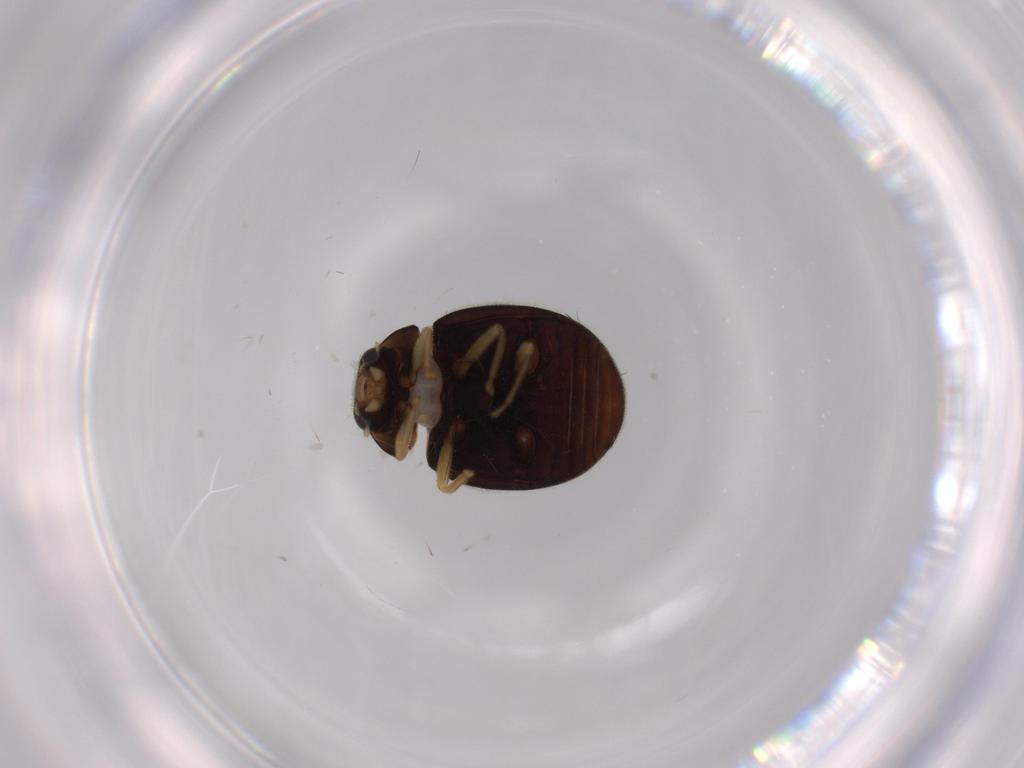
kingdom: Animalia
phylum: Arthropoda
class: Insecta
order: Coleoptera
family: Coccinellidae
